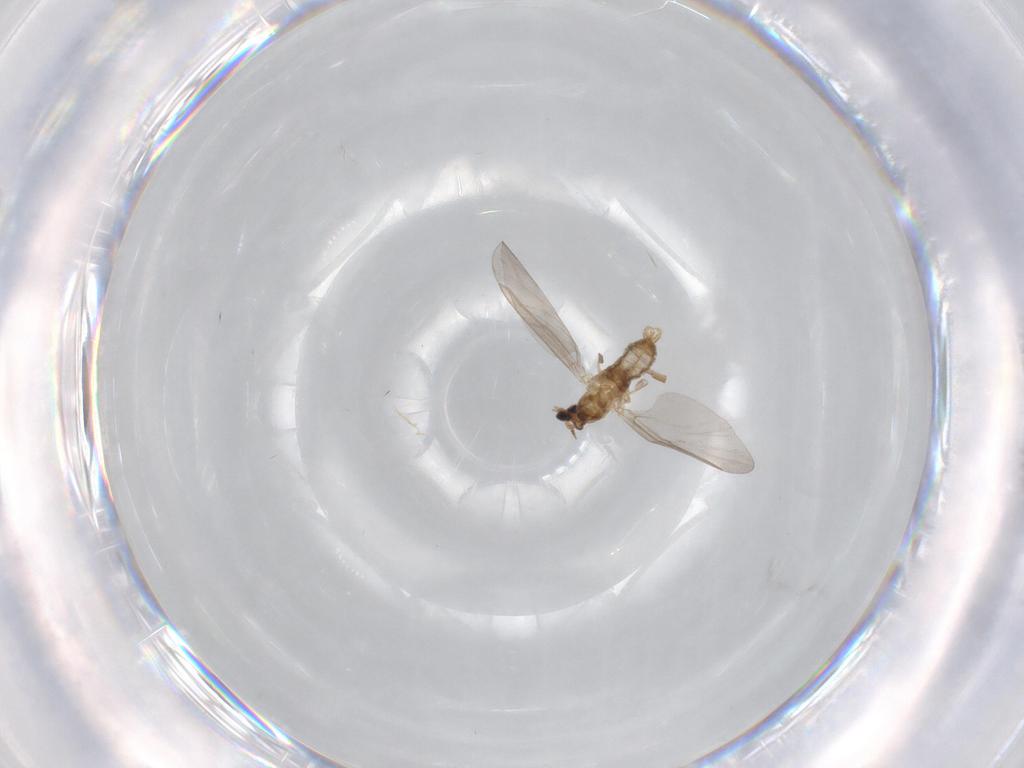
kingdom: Animalia
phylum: Arthropoda
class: Insecta
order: Diptera
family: Cecidomyiidae
